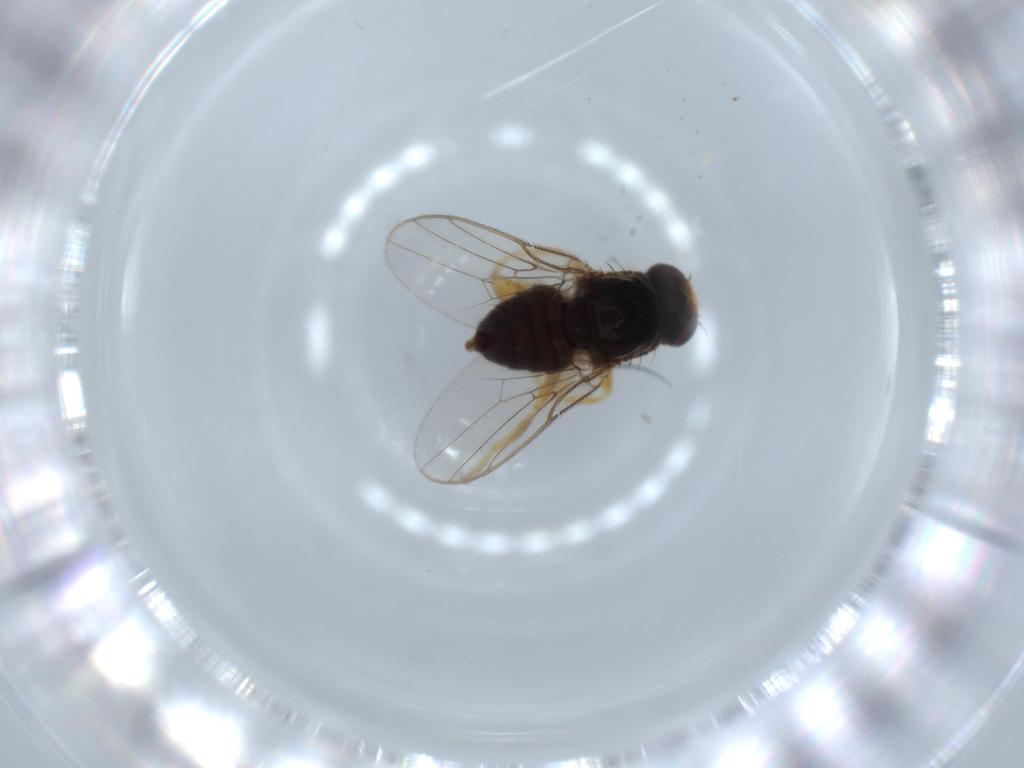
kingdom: Animalia
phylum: Arthropoda
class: Insecta
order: Diptera
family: Chloropidae
